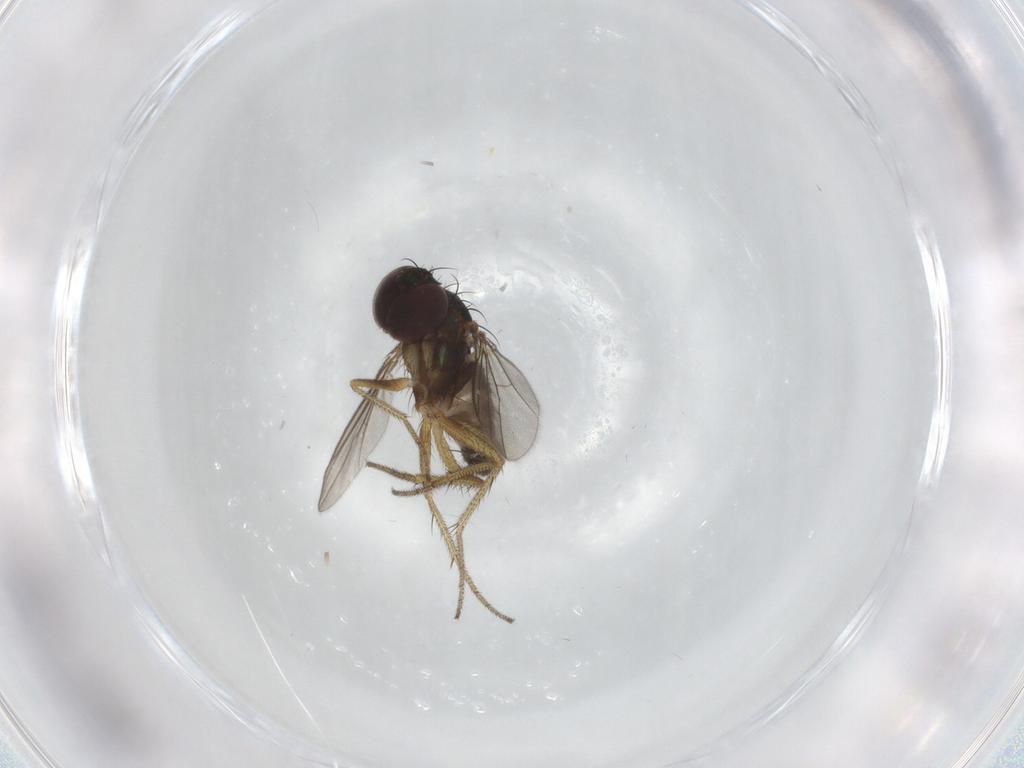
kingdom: Animalia
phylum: Arthropoda
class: Insecta
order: Diptera
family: Dolichopodidae
